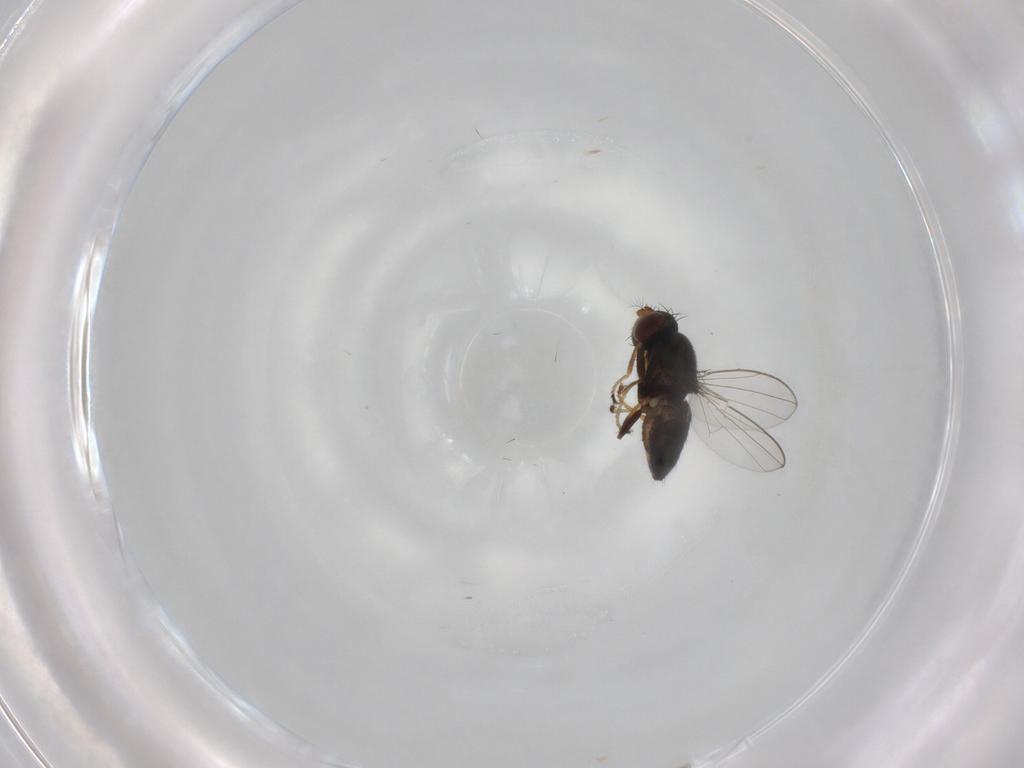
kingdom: Animalia
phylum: Arthropoda
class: Insecta
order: Diptera
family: Ephydridae
